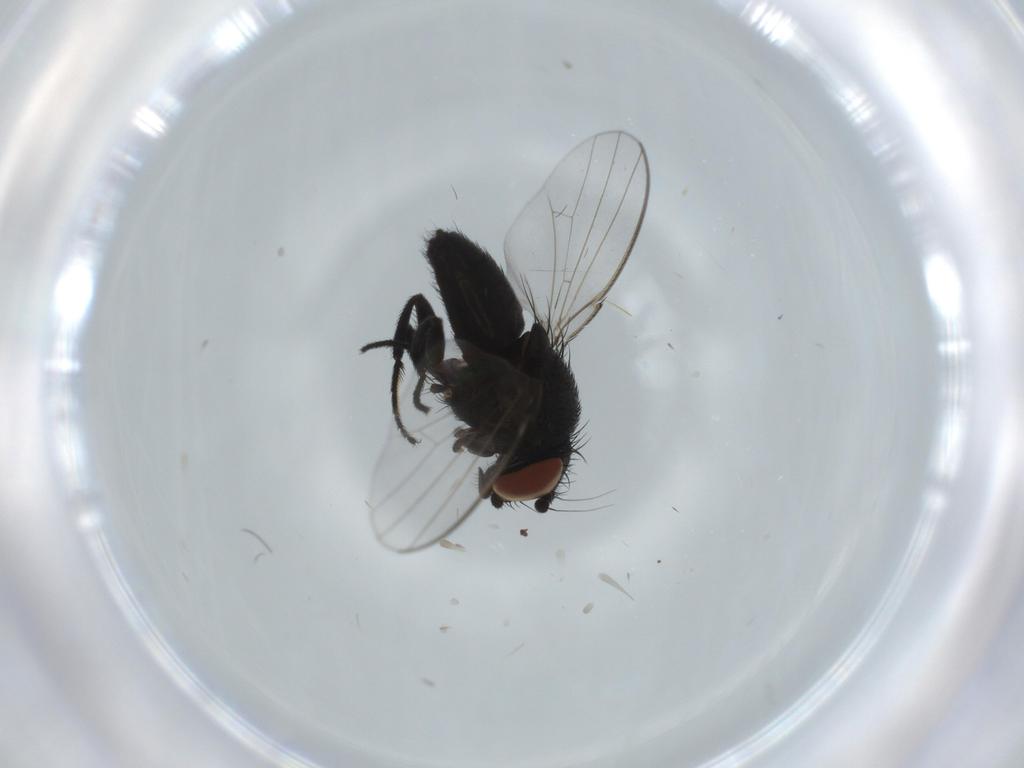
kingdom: Animalia
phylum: Arthropoda
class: Insecta
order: Diptera
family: Milichiidae
